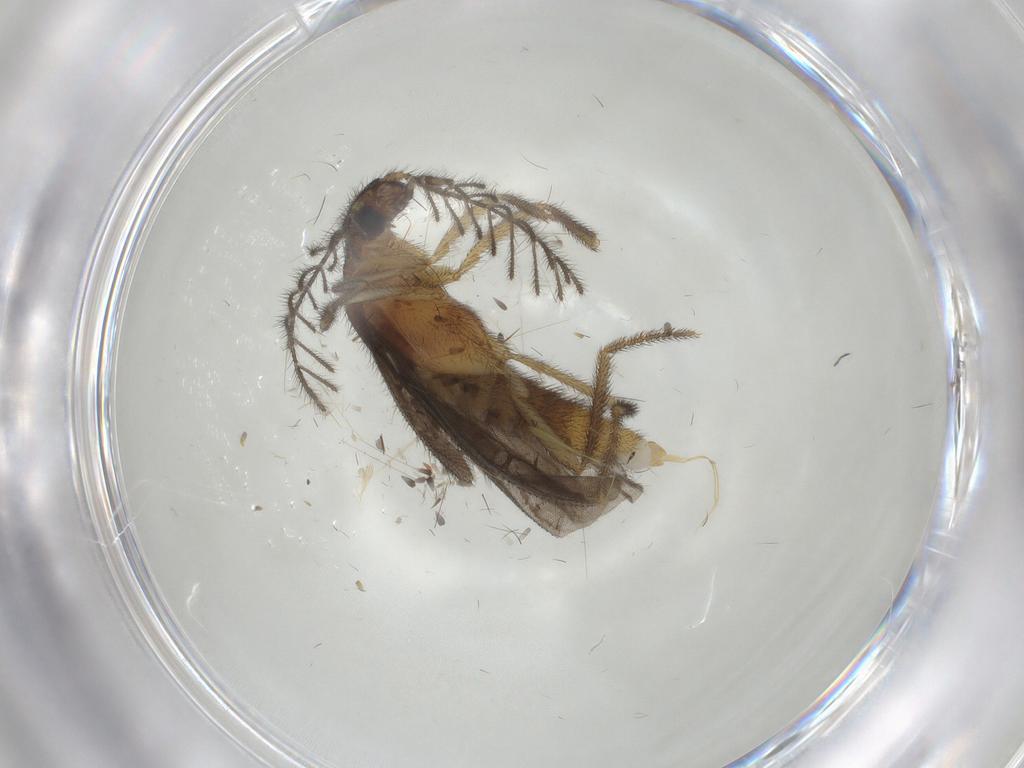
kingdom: Animalia
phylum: Arthropoda
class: Insecta
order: Coleoptera
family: Ptilodactylidae
